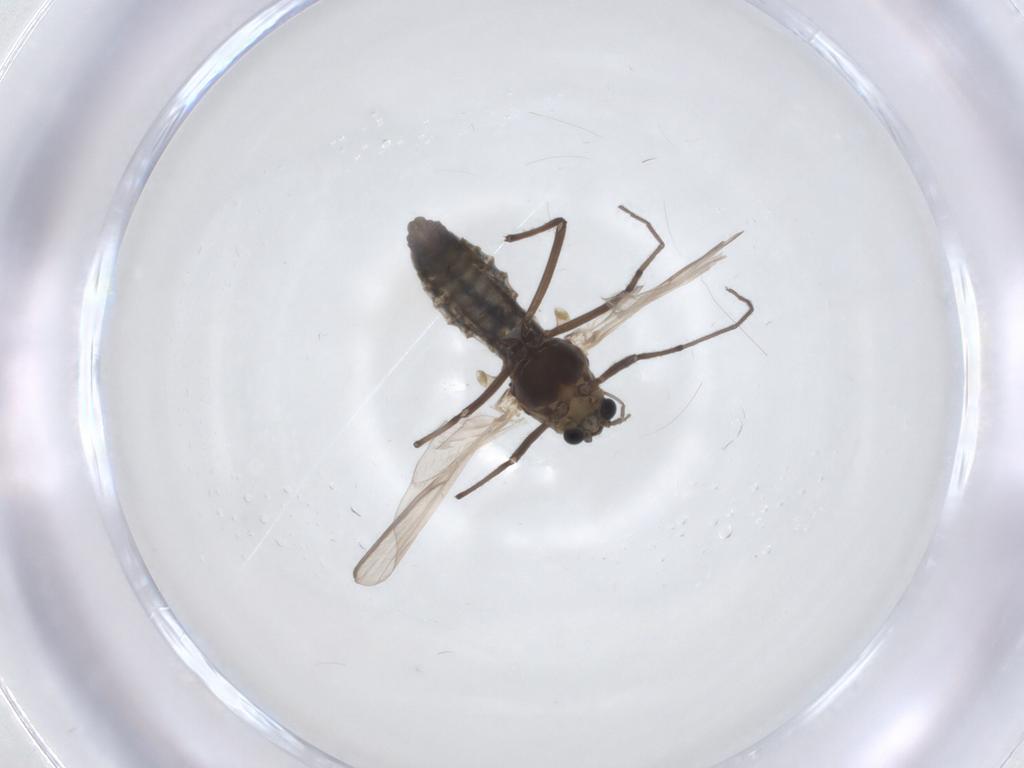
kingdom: Animalia
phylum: Arthropoda
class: Insecta
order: Diptera
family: Chironomidae
